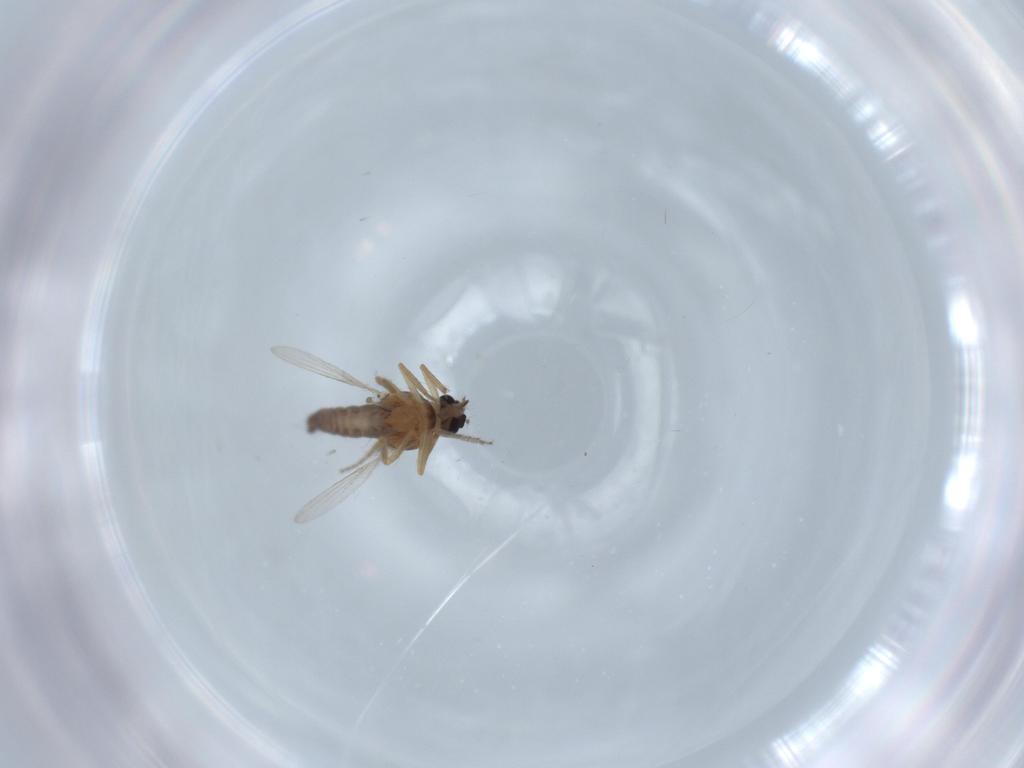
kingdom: Animalia
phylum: Arthropoda
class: Insecta
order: Diptera
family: Ceratopogonidae
